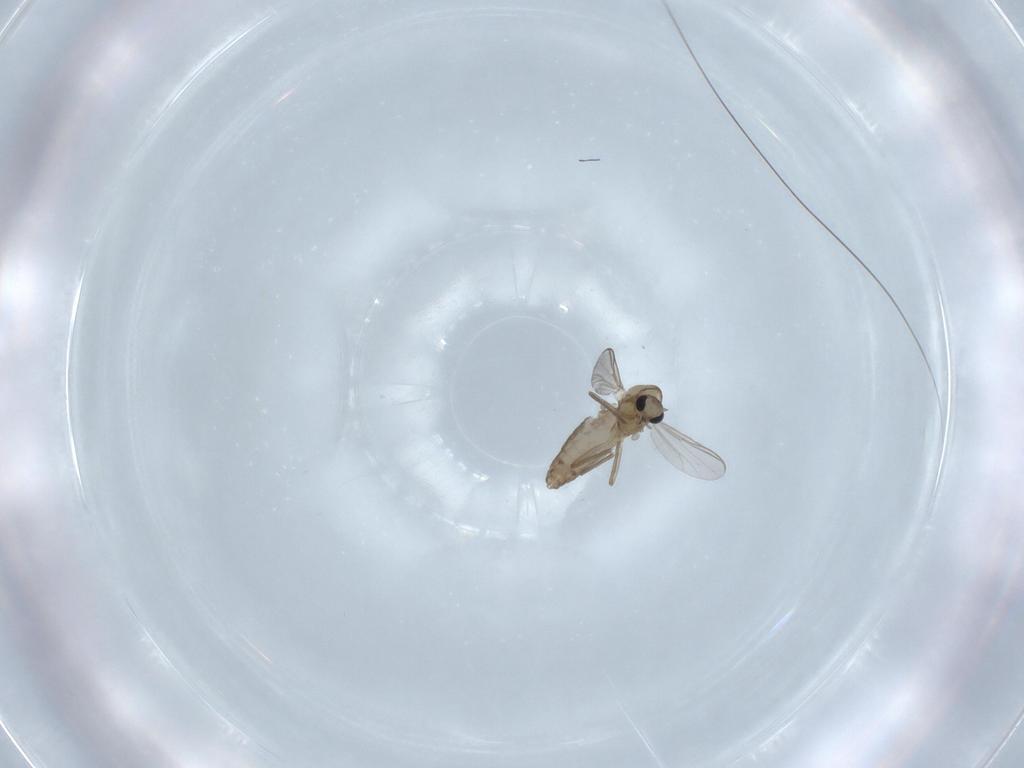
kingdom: Animalia
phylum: Arthropoda
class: Insecta
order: Diptera
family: Chironomidae
